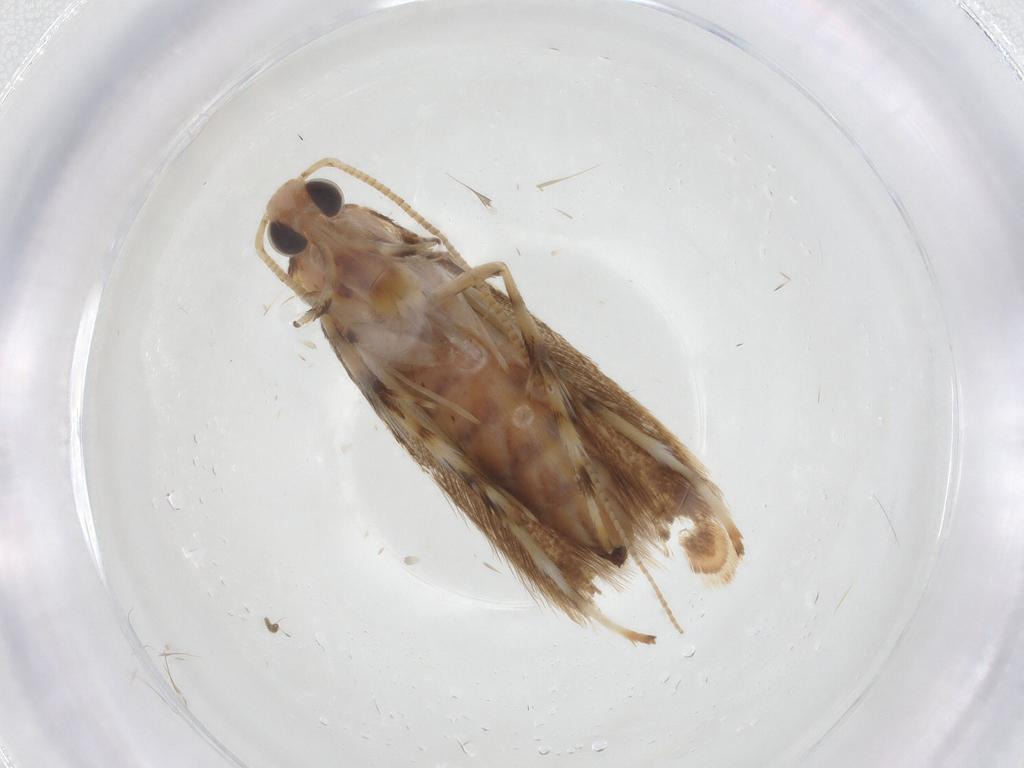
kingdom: Animalia
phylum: Arthropoda
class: Insecta
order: Lepidoptera
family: Gracillariidae
